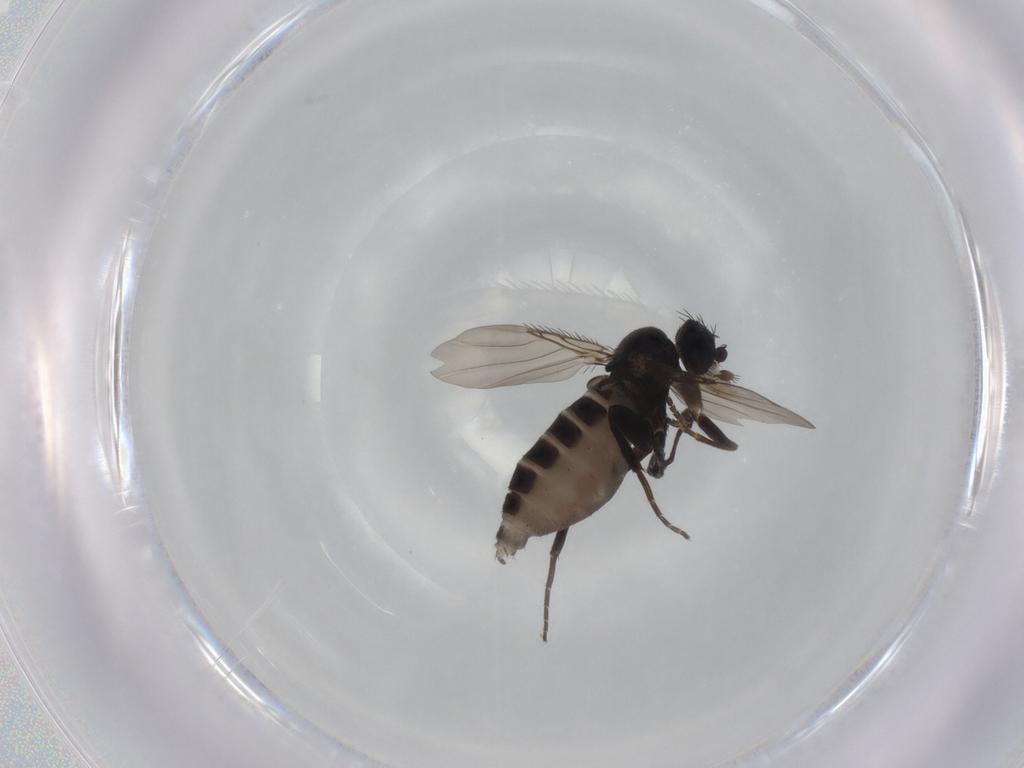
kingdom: Animalia
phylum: Arthropoda
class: Insecta
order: Diptera
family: Phoridae
